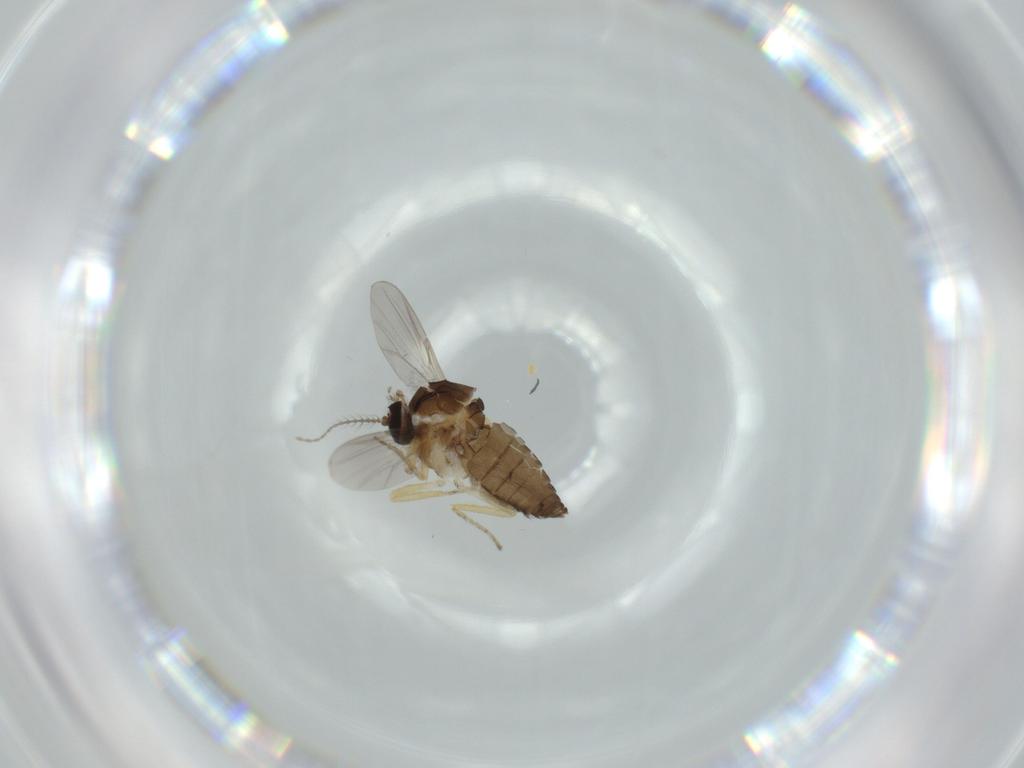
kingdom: Animalia
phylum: Arthropoda
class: Insecta
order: Diptera
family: Ceratopogonidae
